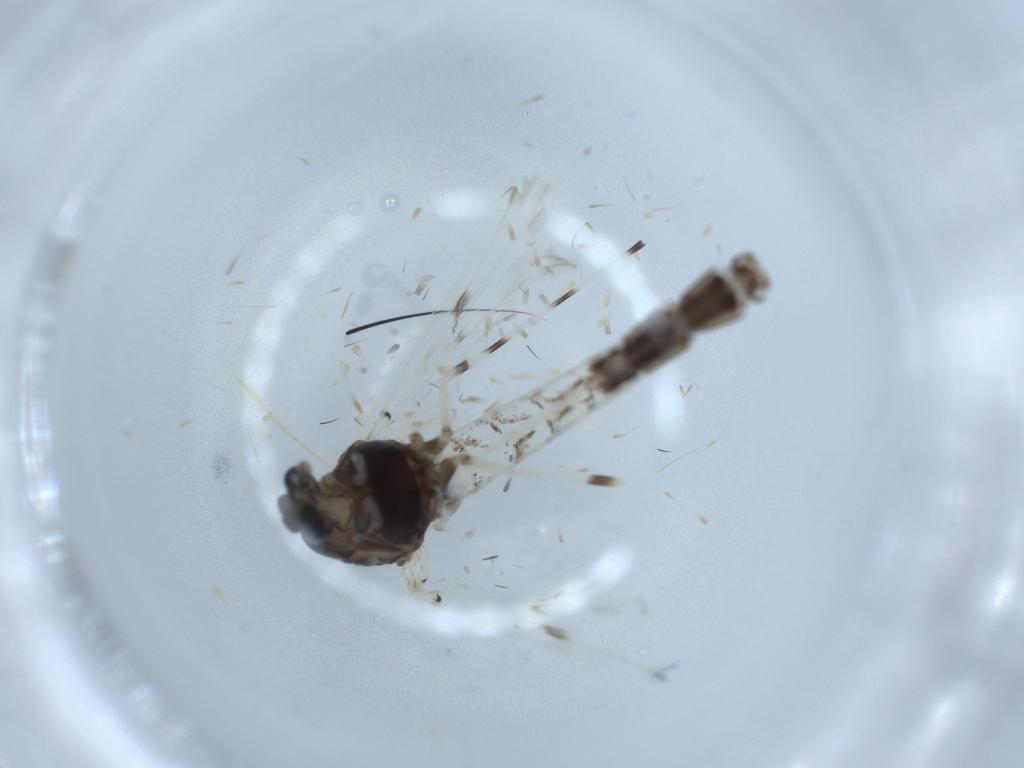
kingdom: Animalia
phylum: Arthropoda
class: Insecta
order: Diptera
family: Chironomidae
